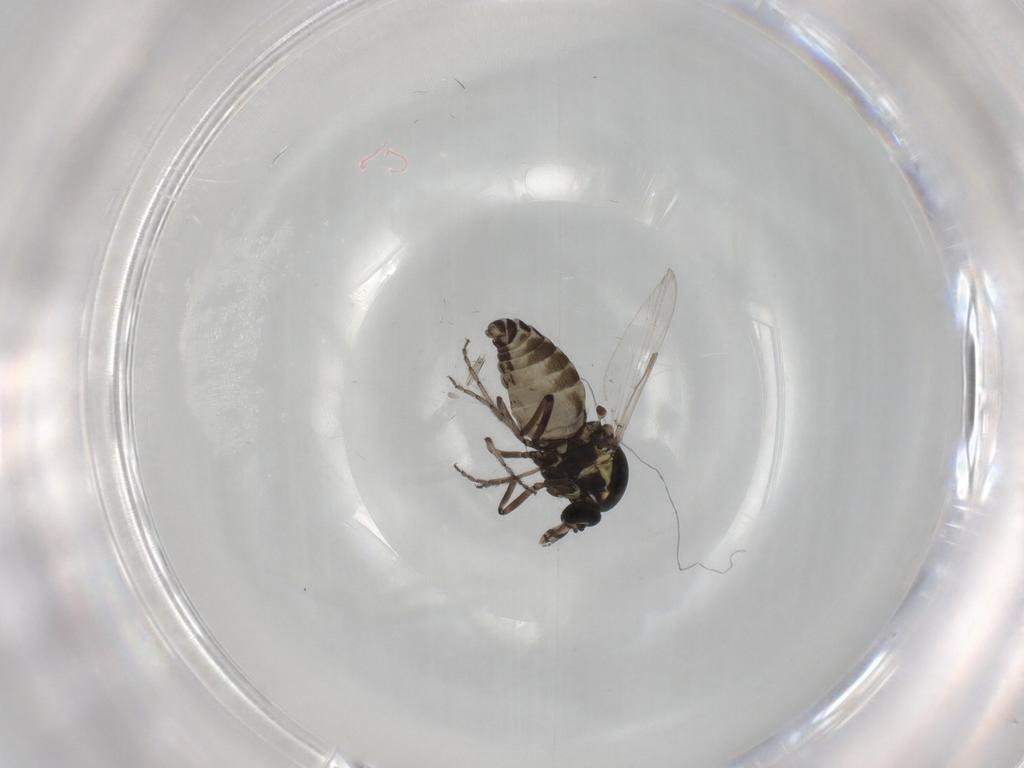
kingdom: Animalia
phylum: Arthropoda
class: Insecta
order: Diptera
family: Ceratopogonidae
